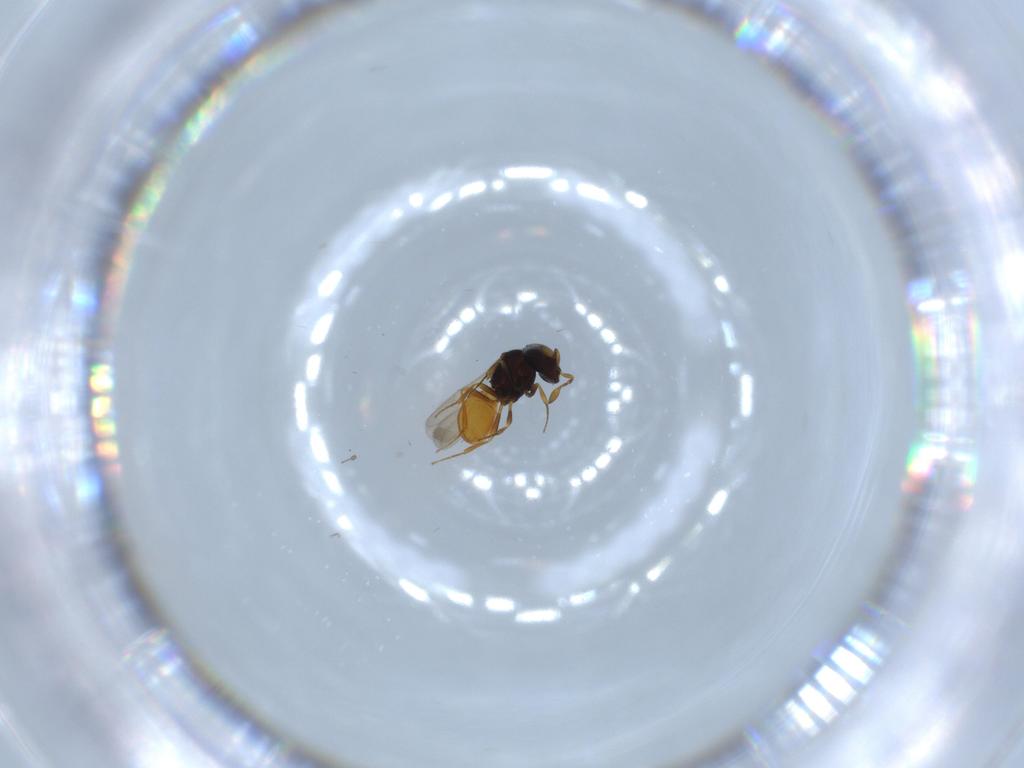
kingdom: Animalia
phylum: Arthropoda
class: Insecta
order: Hymenoptera
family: Scelionidae
